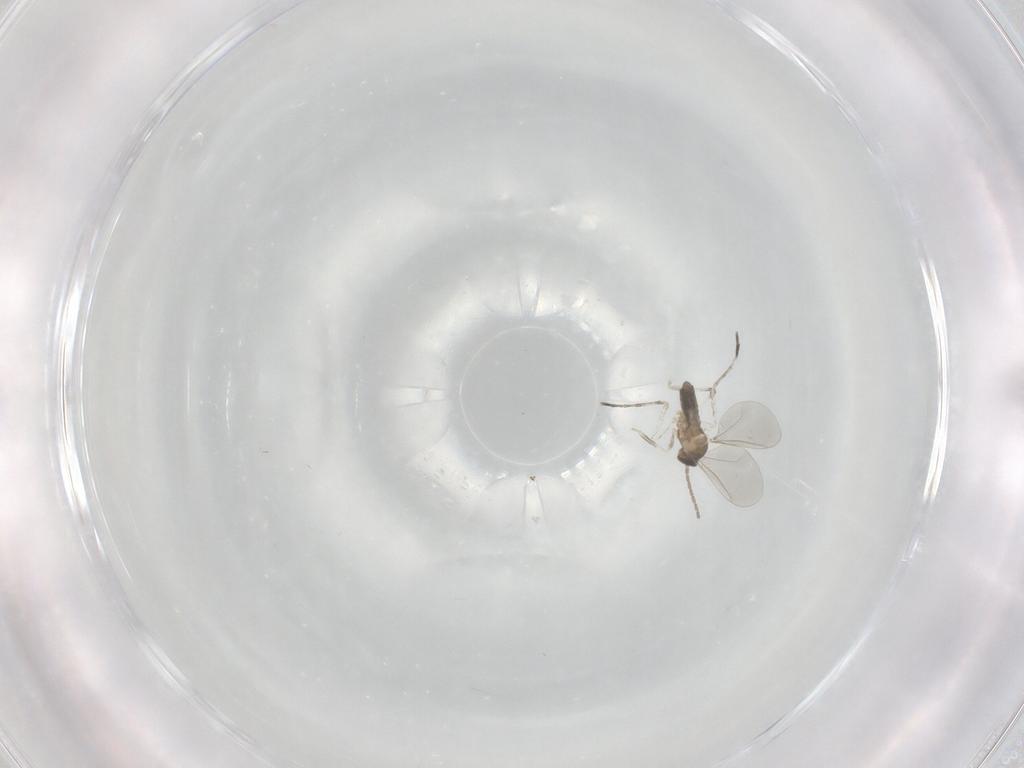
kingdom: Animalia
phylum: Arthropoda
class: Insecta
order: Diptera
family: Cecidomyiidae
